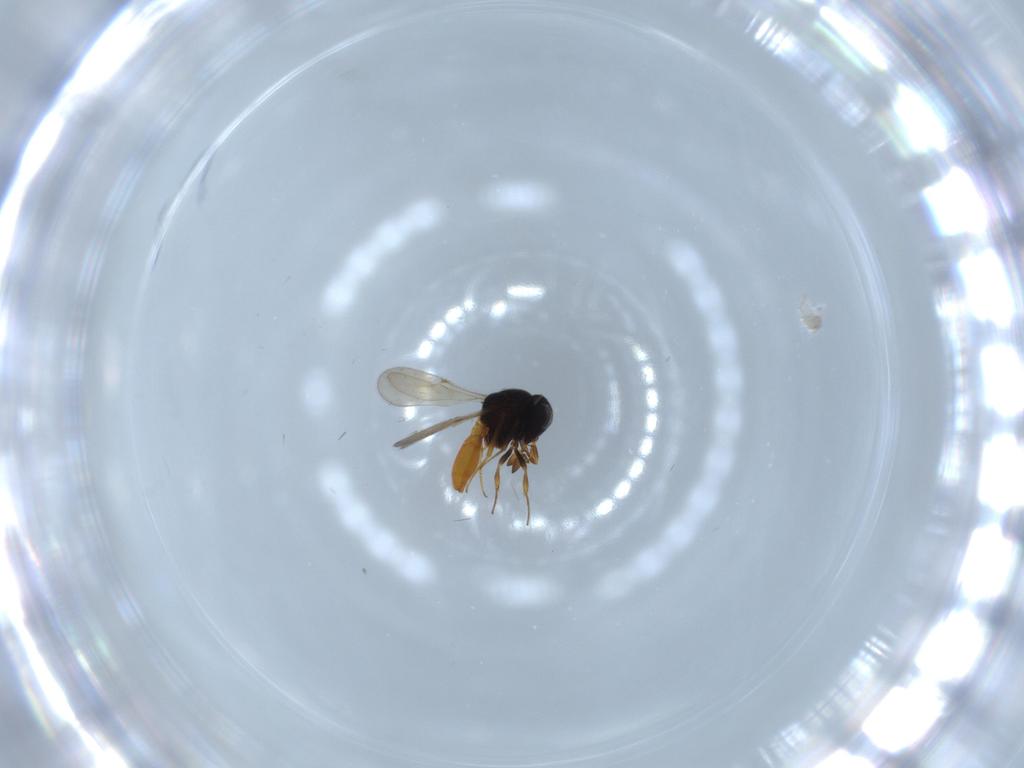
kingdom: Animalia
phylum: Arthropoda
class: Insecta
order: Hymenoptera
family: Scelionidae
